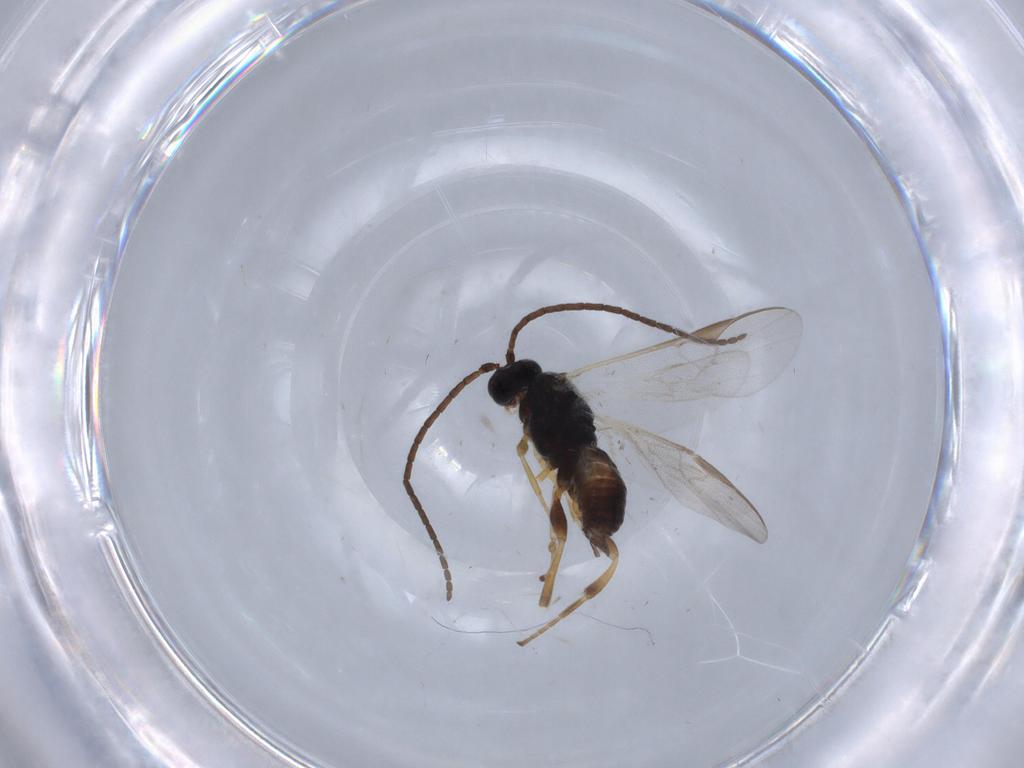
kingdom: Animalia
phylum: Arthropoda
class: Insecta
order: Hymenoptera
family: Braconidae
